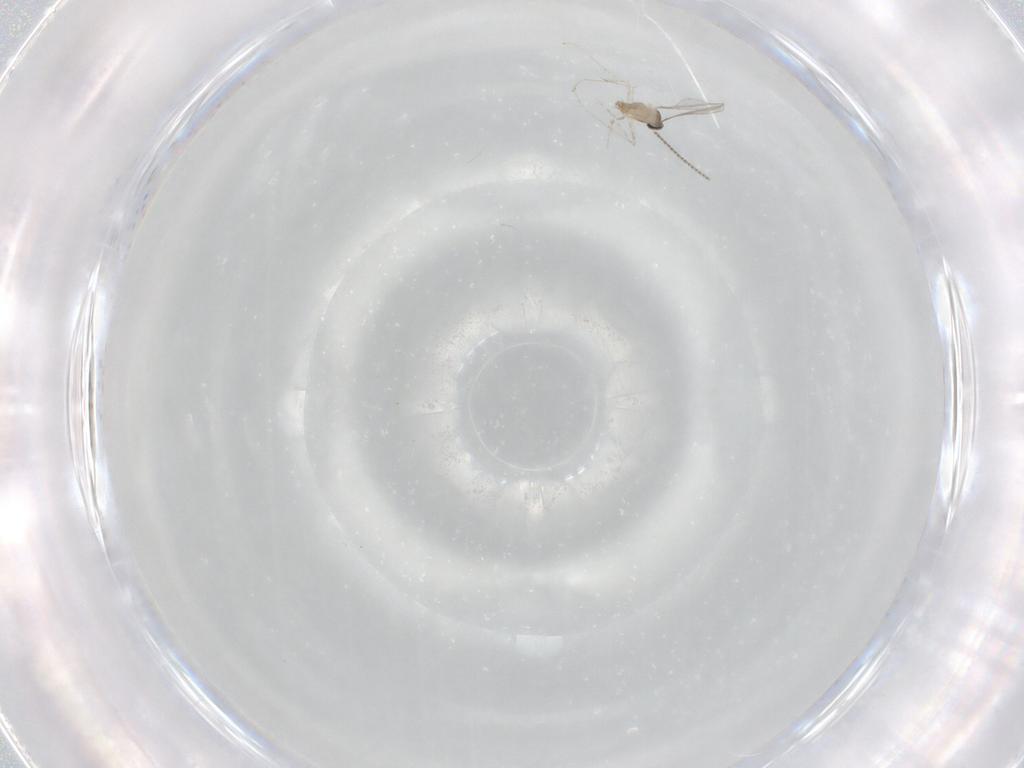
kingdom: Animalia
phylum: Arthropoda
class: Insecta
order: Diptera
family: Cecidomyiidae
